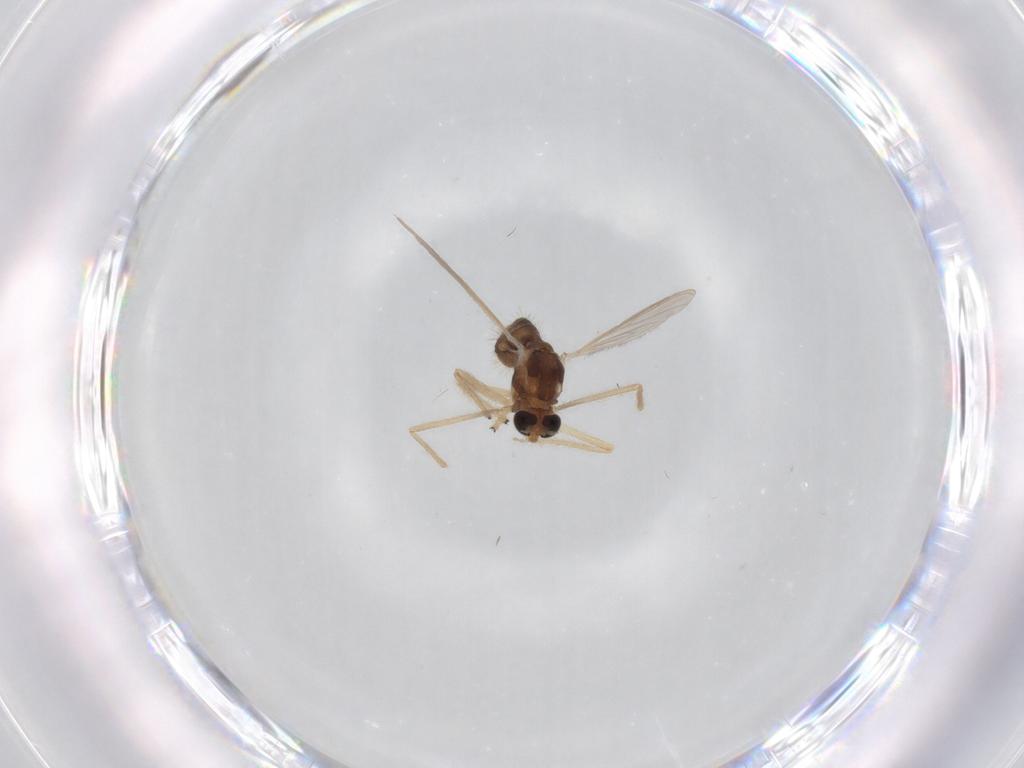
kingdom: Animalia
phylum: Arthropoda
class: Insecta
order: Diptera
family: Chironomidae
